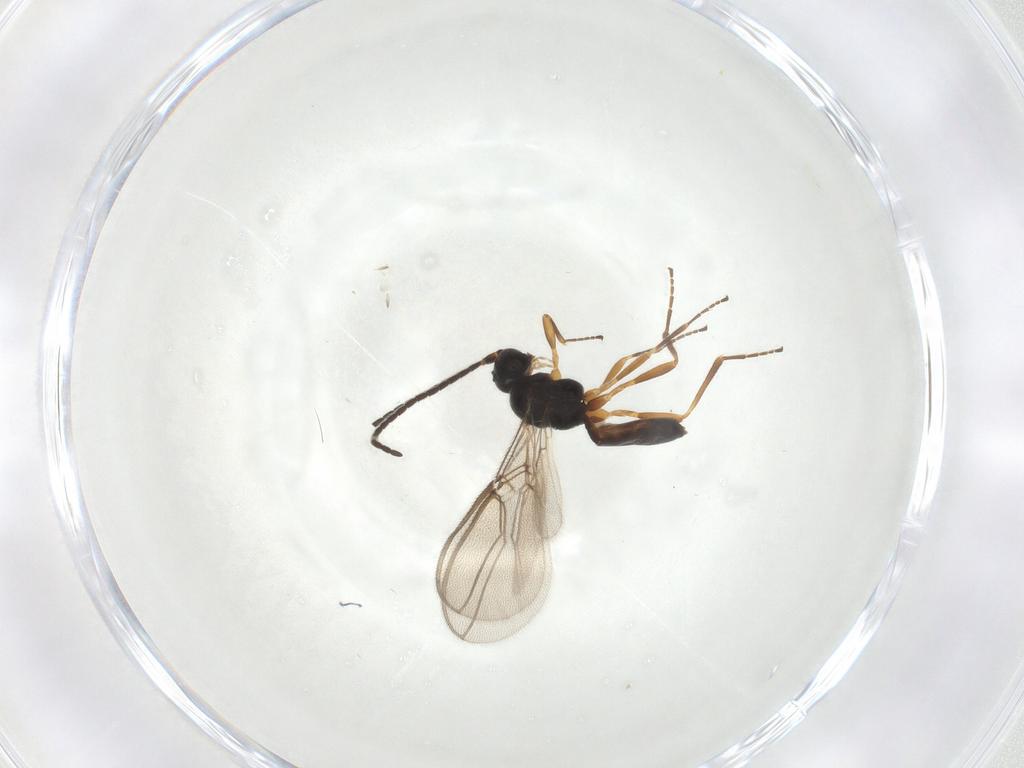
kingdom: Animalia
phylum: Arthropoda
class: Insecta
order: Hymenoptera
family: Braconidae
